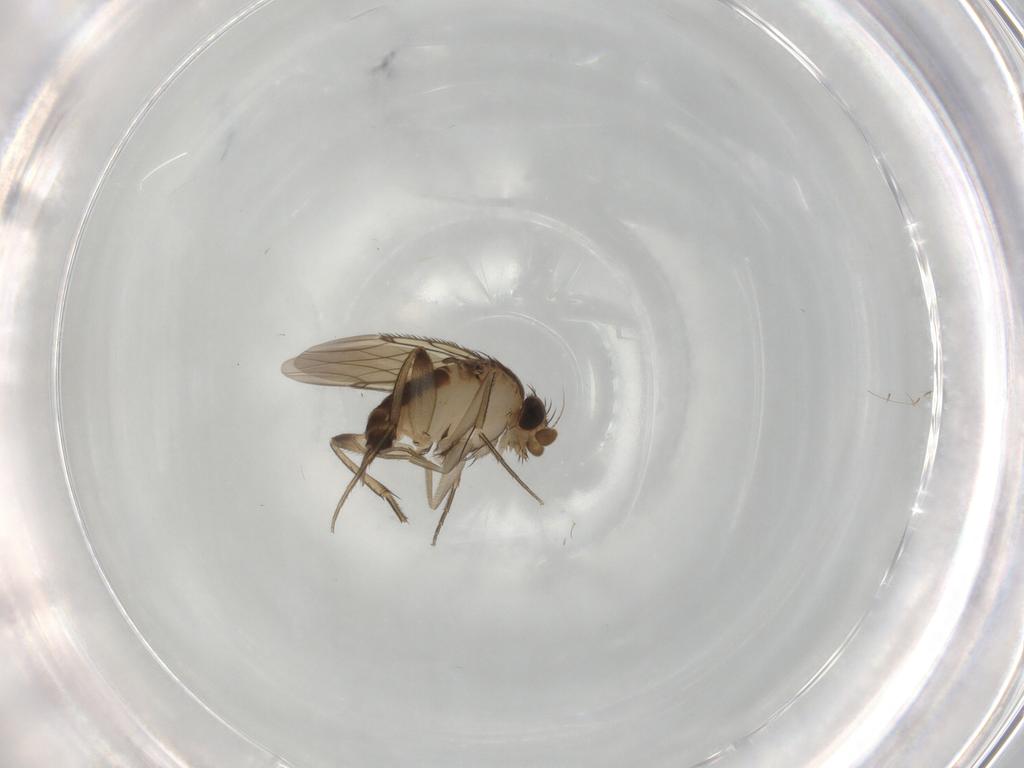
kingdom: Animalia
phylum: Arthropoda
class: Insecta
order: Diptera
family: Phoridae
